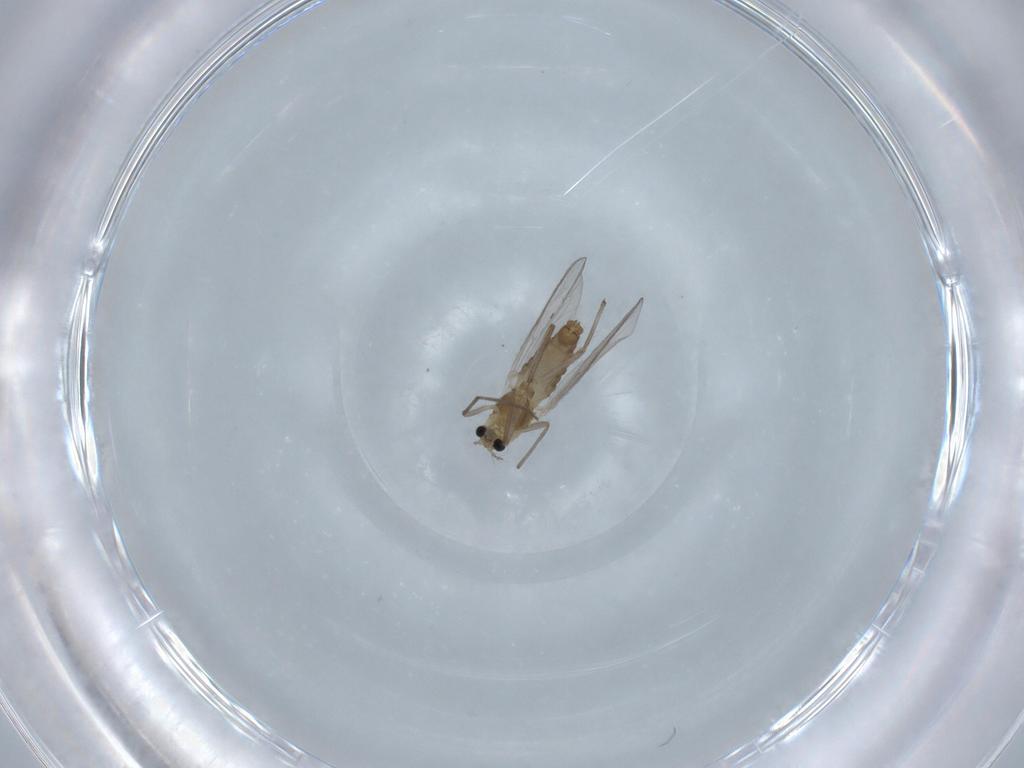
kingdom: Animalia
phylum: Arthropoda
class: Insecta
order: Diptera
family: Chironomidae
